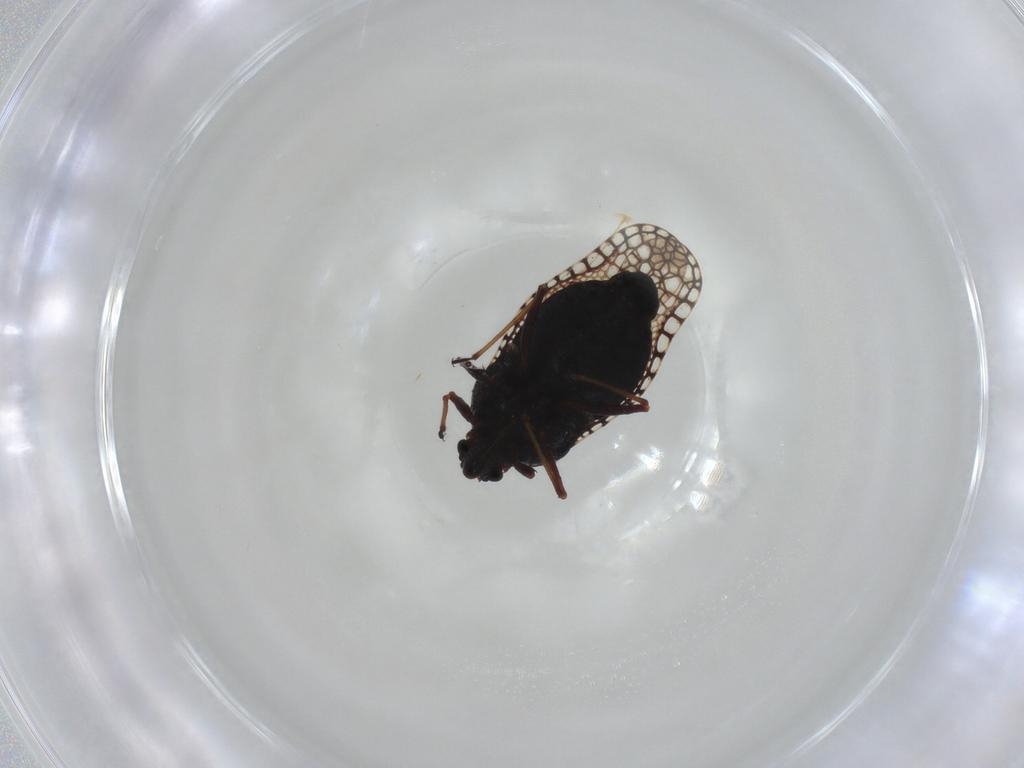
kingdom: Animalia
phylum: Arthropoda
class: Insecta
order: Hemiptera
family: Tingidae
